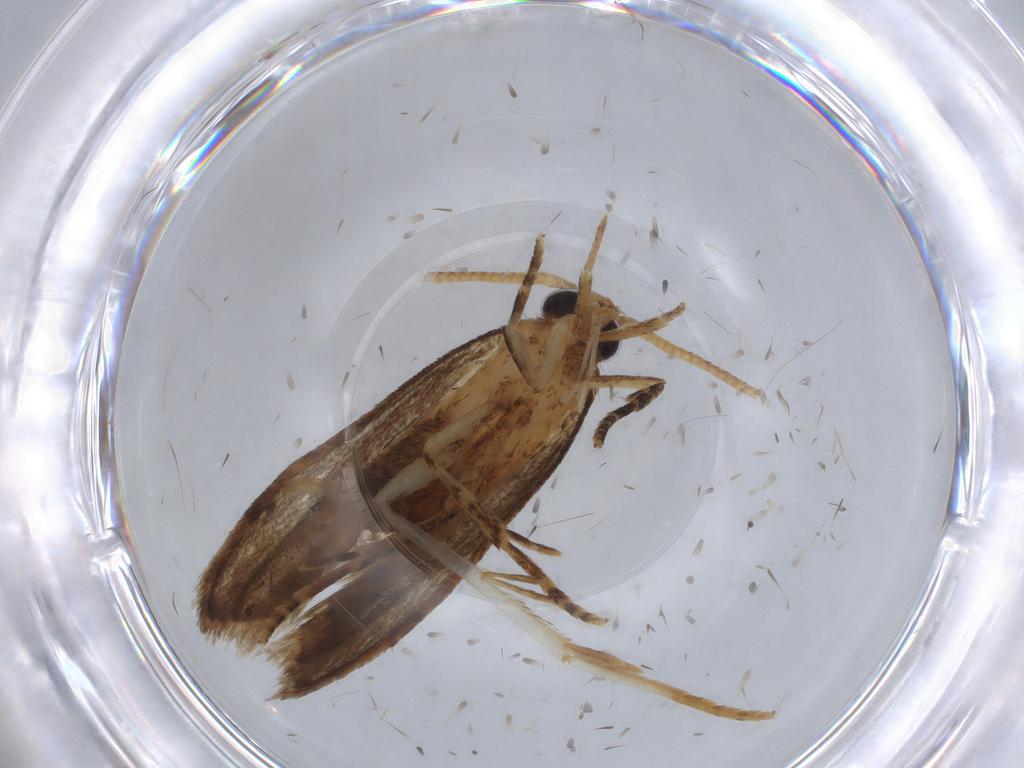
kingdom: Animalia
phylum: Arthropoda
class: Insecta
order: Lepidoptera
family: Autostichidae
